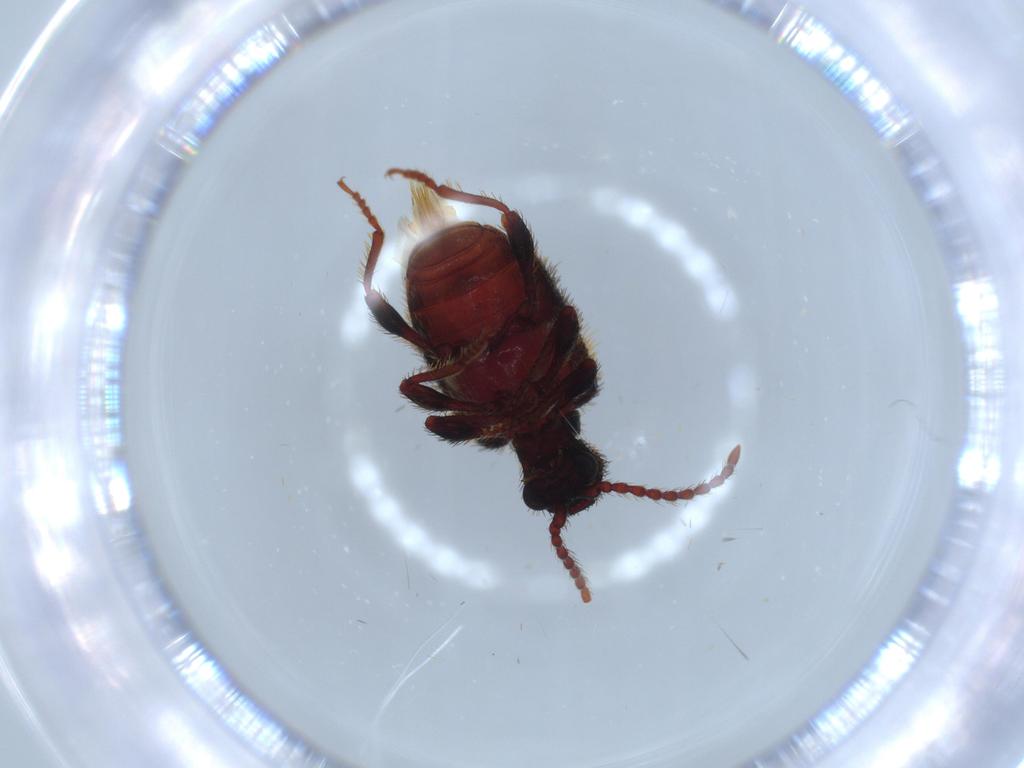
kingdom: Animalia
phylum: Arthropoda
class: Insecta
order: Coleoptera
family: Ptinidae
